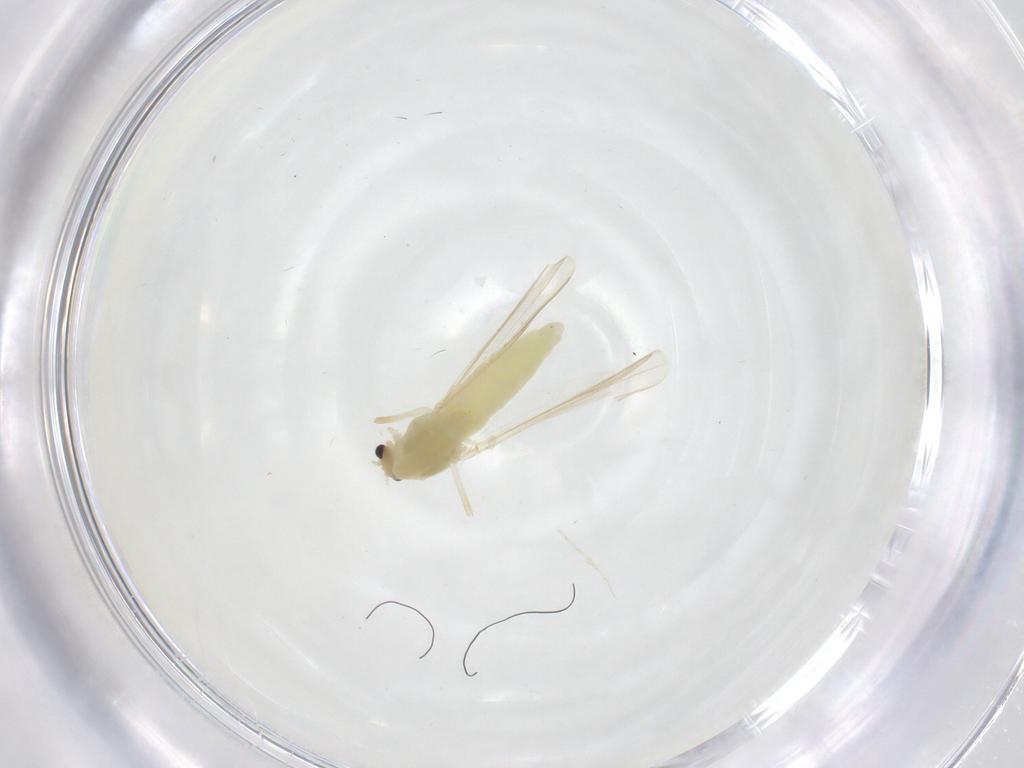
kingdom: Animalia
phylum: Arthropoda
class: Insecta
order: Diptera
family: Chironomidae
